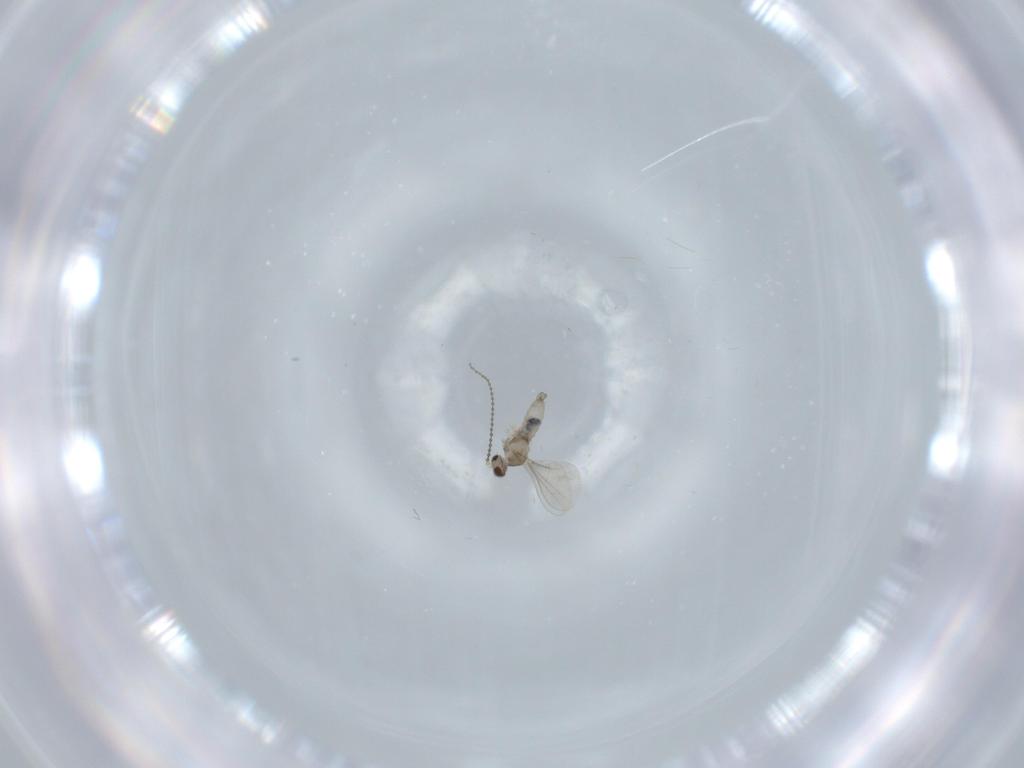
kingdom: Animalia
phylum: Arthropoda
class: Insecta
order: Diptera
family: Cecidomyiidae
